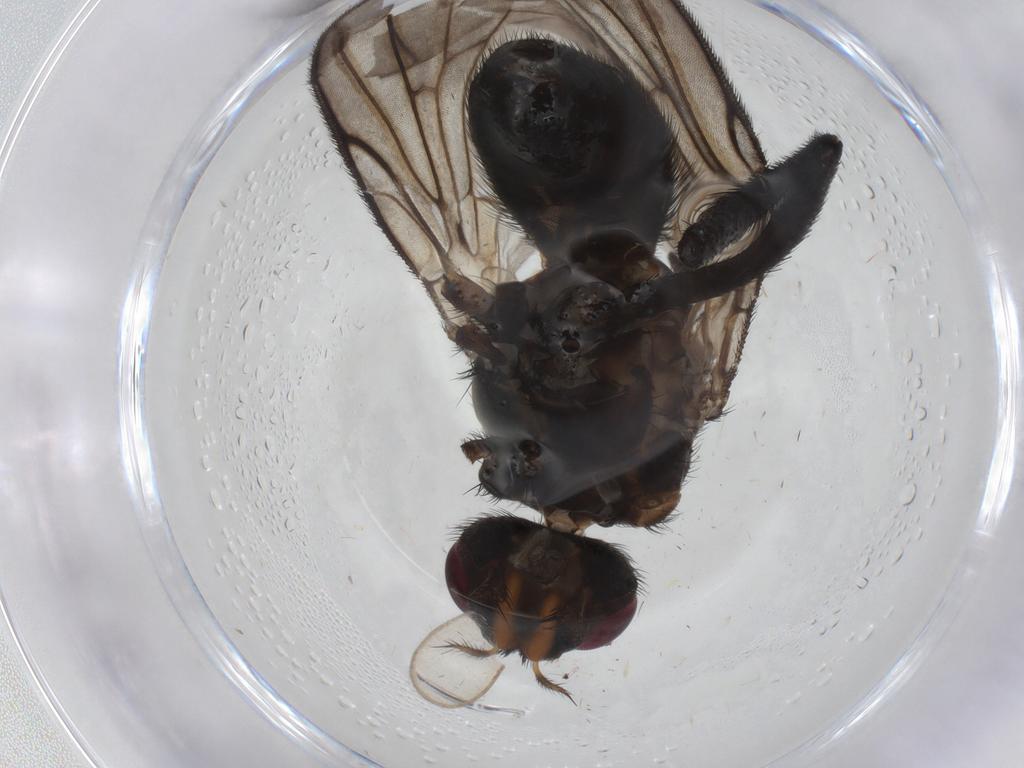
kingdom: Animalia
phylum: Arthropoda
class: Insecta
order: Diptera
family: Calliphoridae
